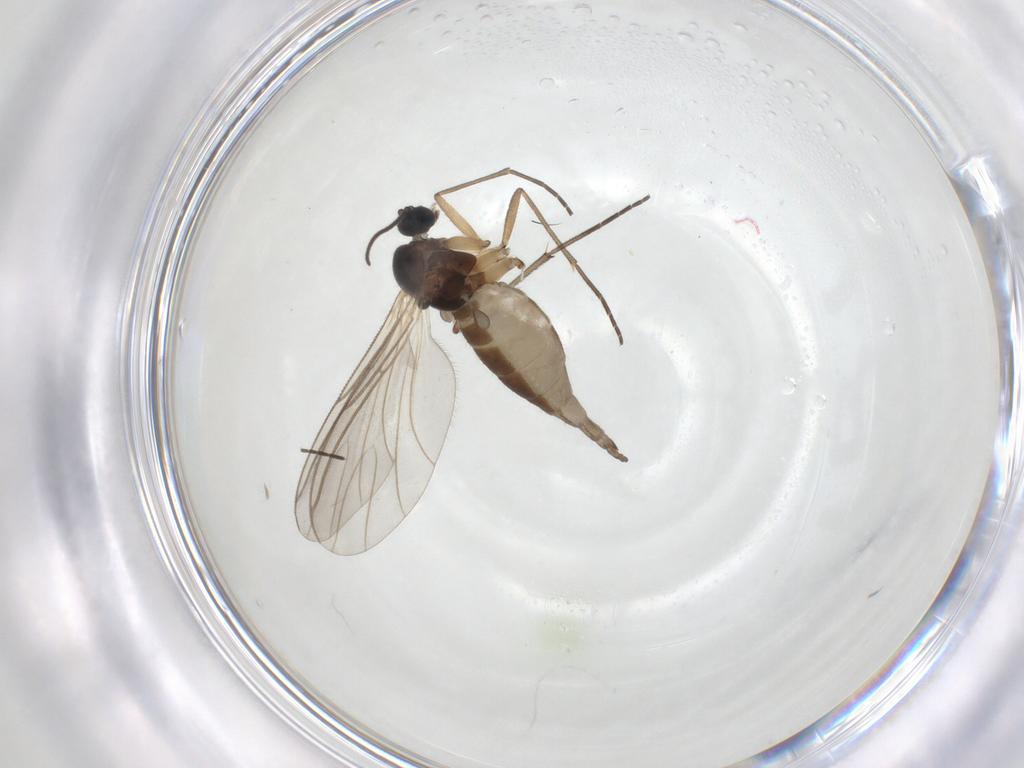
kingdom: Animalia
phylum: Arthropoda
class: Insecta
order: Diptera
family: Sciaridae
